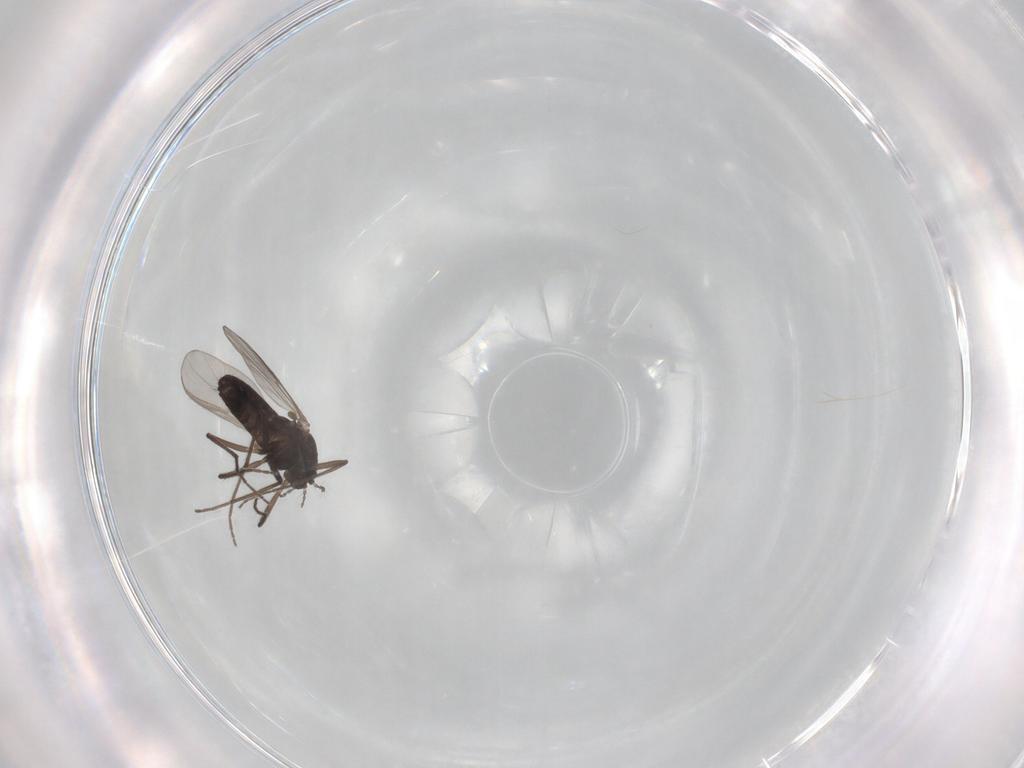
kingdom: Animalia
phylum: Arthropoda
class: Insecta
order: Diptera
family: Chironomidae
